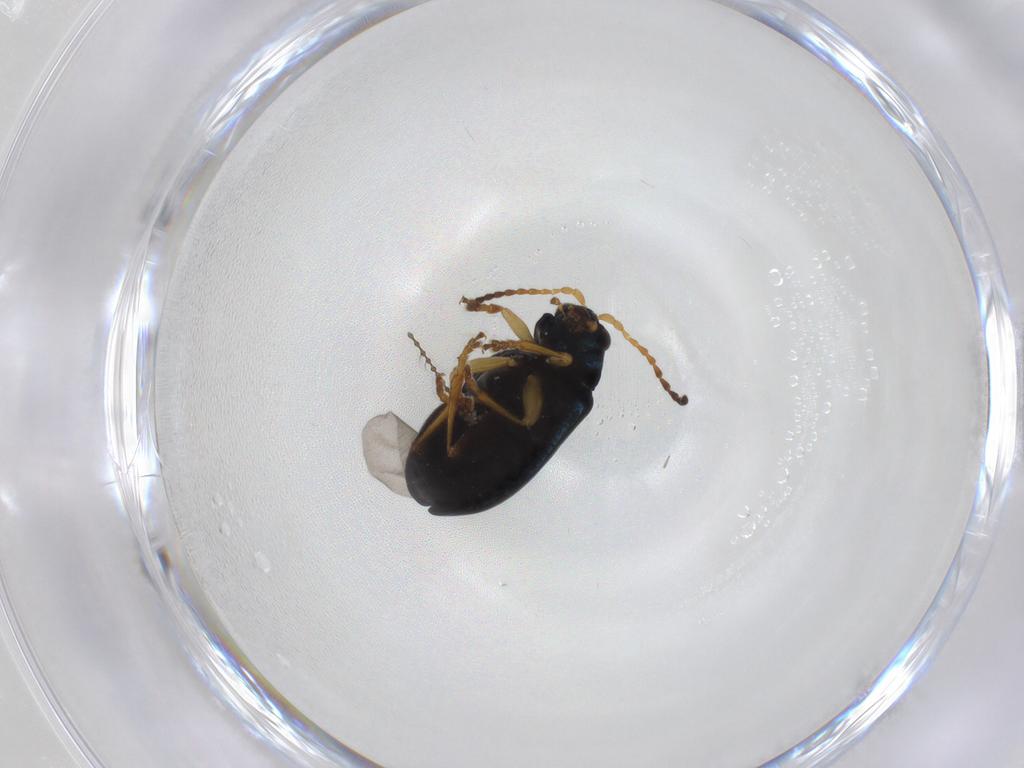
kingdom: Animalia
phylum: Arthropoda
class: Insecta
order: Coleoptera
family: Chrysomelidae
